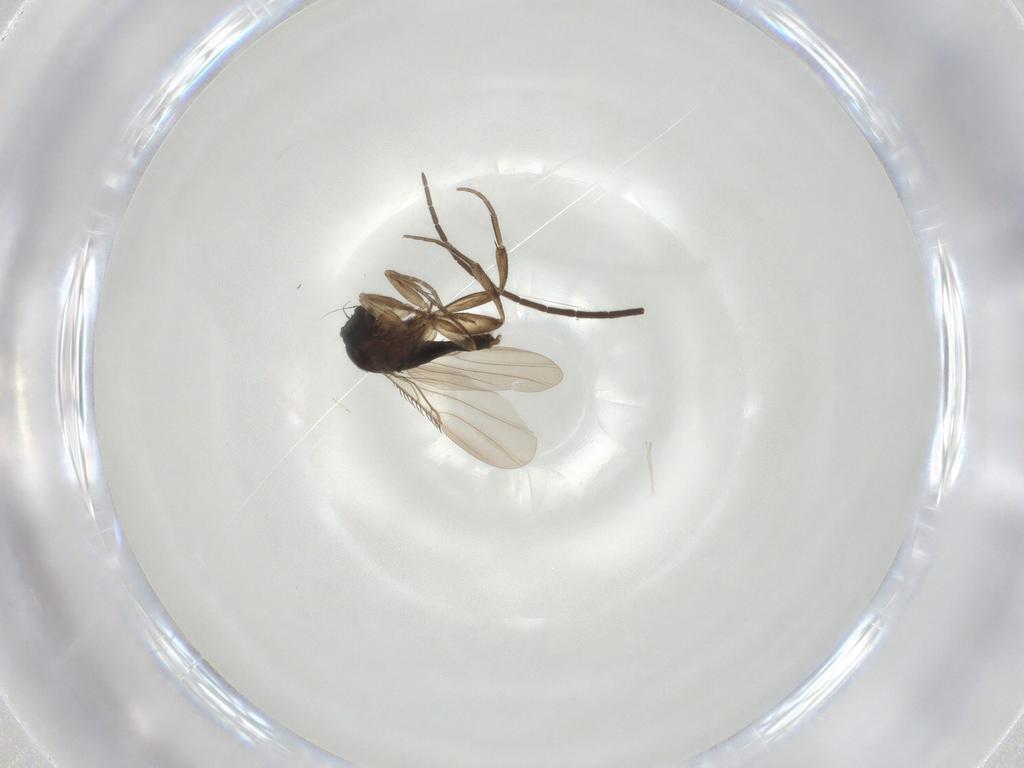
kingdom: Animalia
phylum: Arthropoda
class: Insecta
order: Diptera
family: Phoridae
